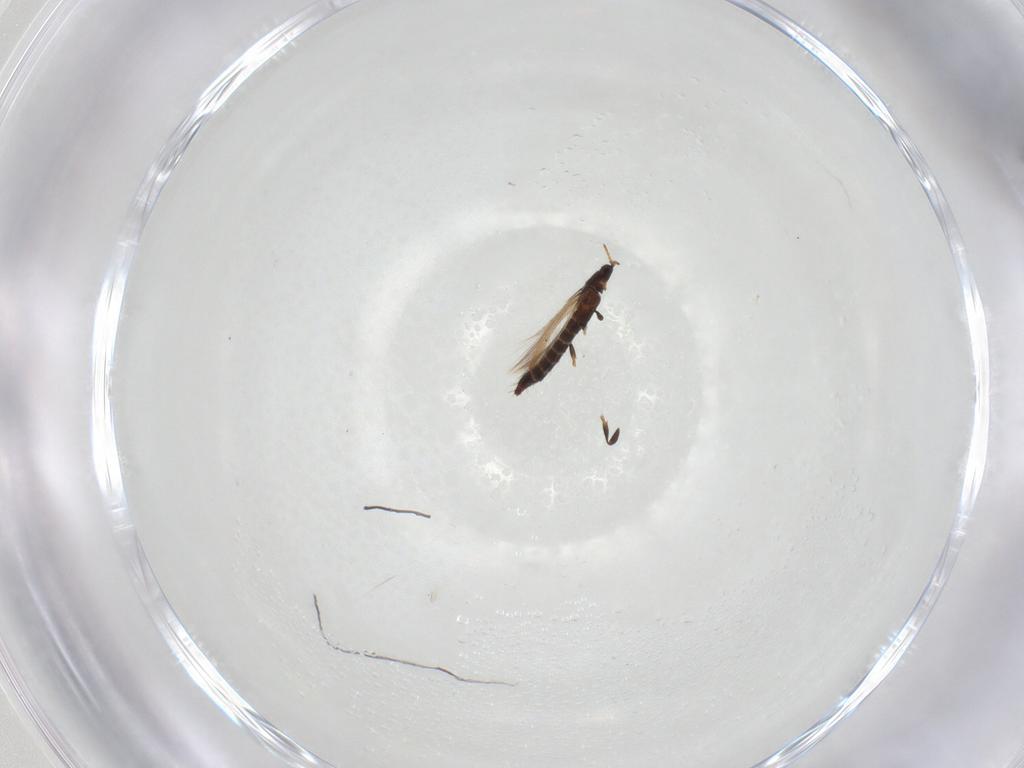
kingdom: Animalia
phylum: Arthropoda
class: Insecta
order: Thysanoptera
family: Thripidae
